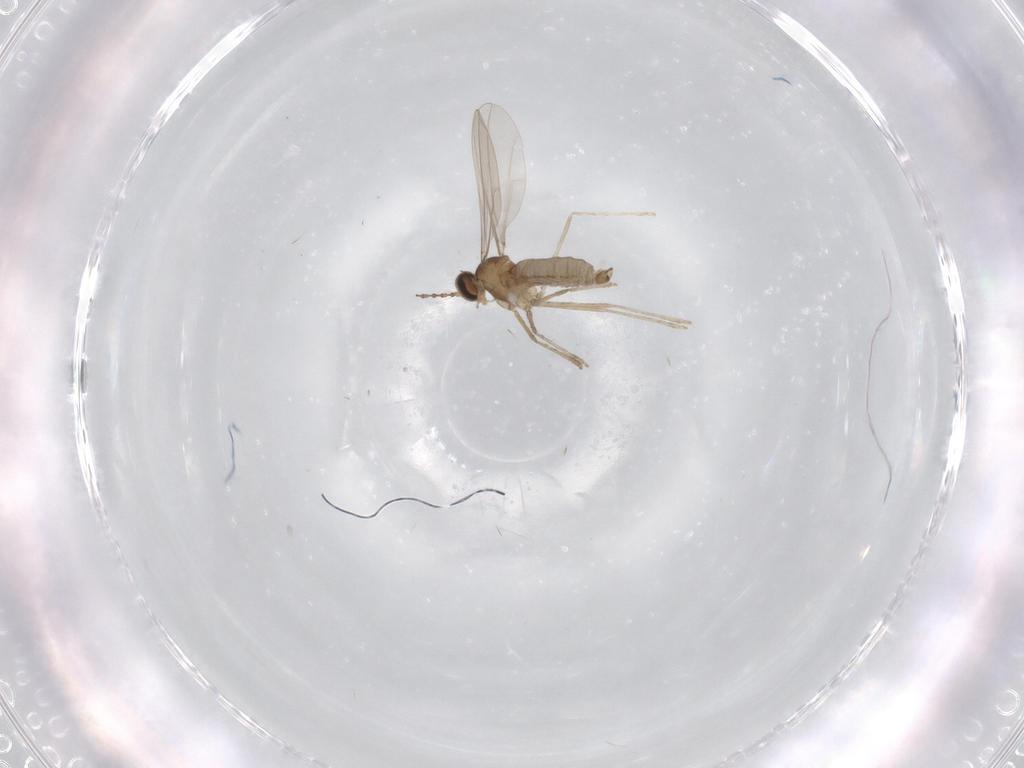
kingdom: Animalia
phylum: Arthropoda
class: Insecta
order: Diptera
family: Cecidomyiidae
